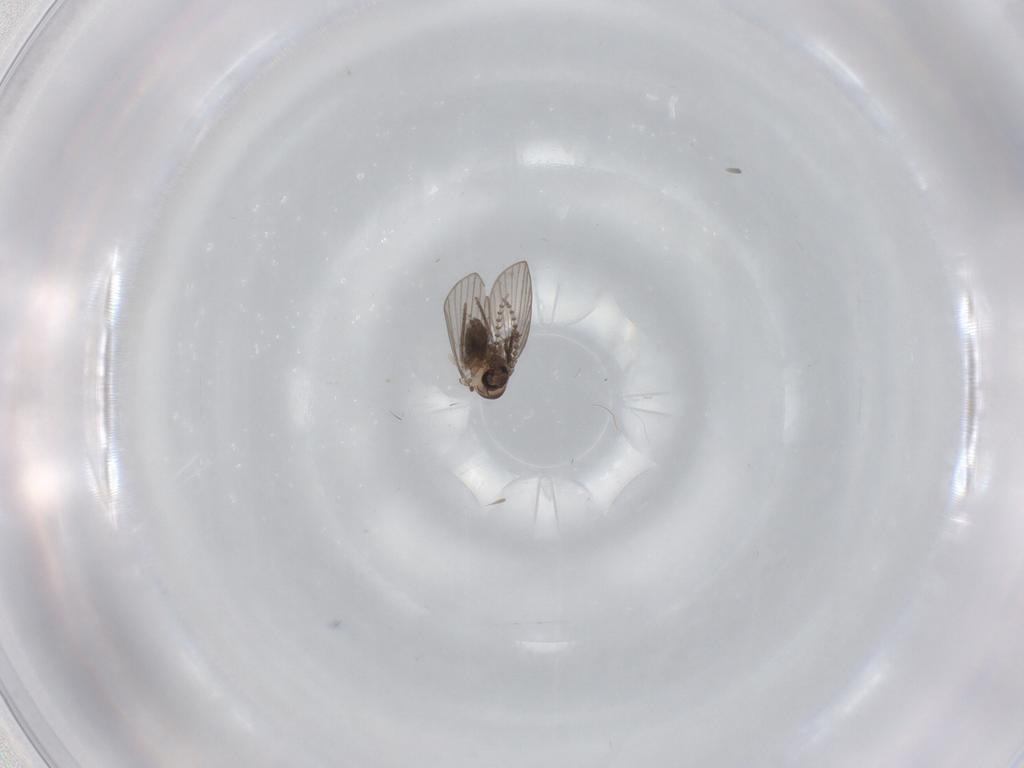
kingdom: Animalia
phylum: Arthropoda
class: Insecta
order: Diptera
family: Psychodidae
